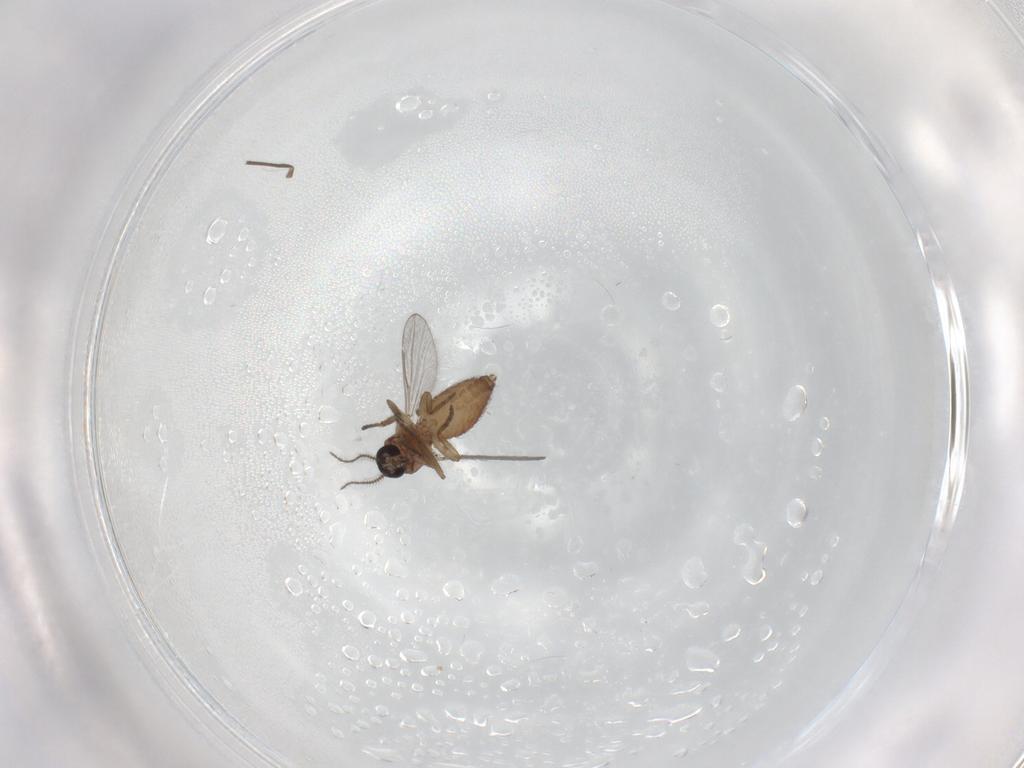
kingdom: Animalia
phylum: Arthropoda
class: Insecta
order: Diptera
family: Chironomidae
